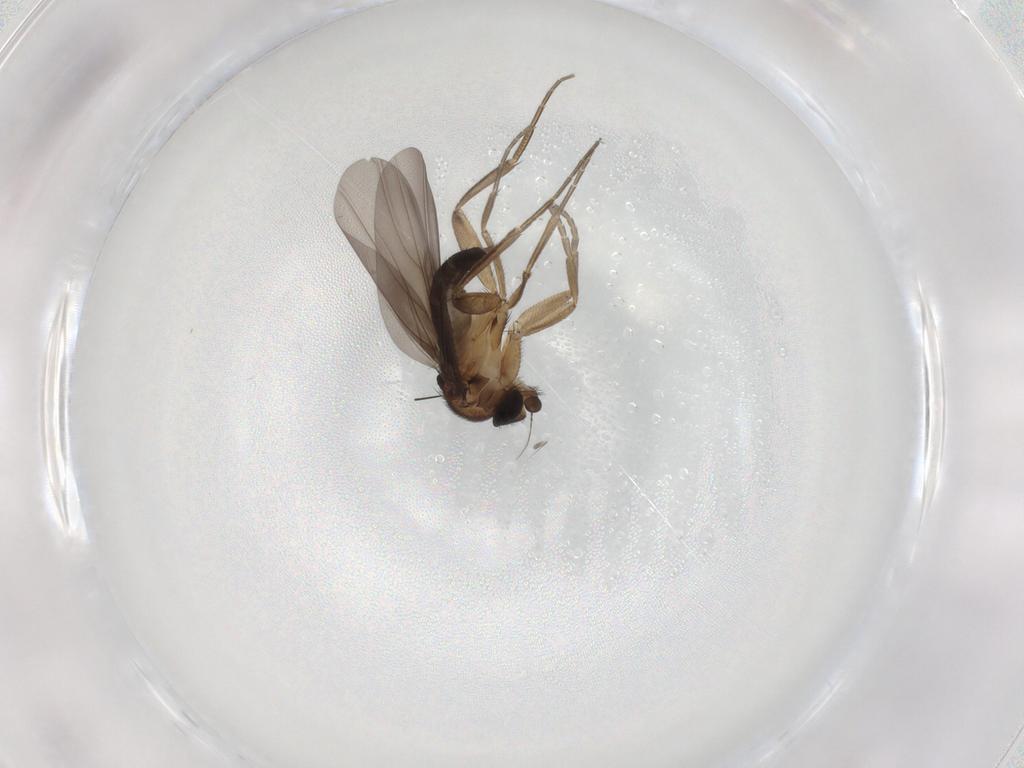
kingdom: Animalia
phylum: Arthropoda
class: Insecta
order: Diptera
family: Phoridae
